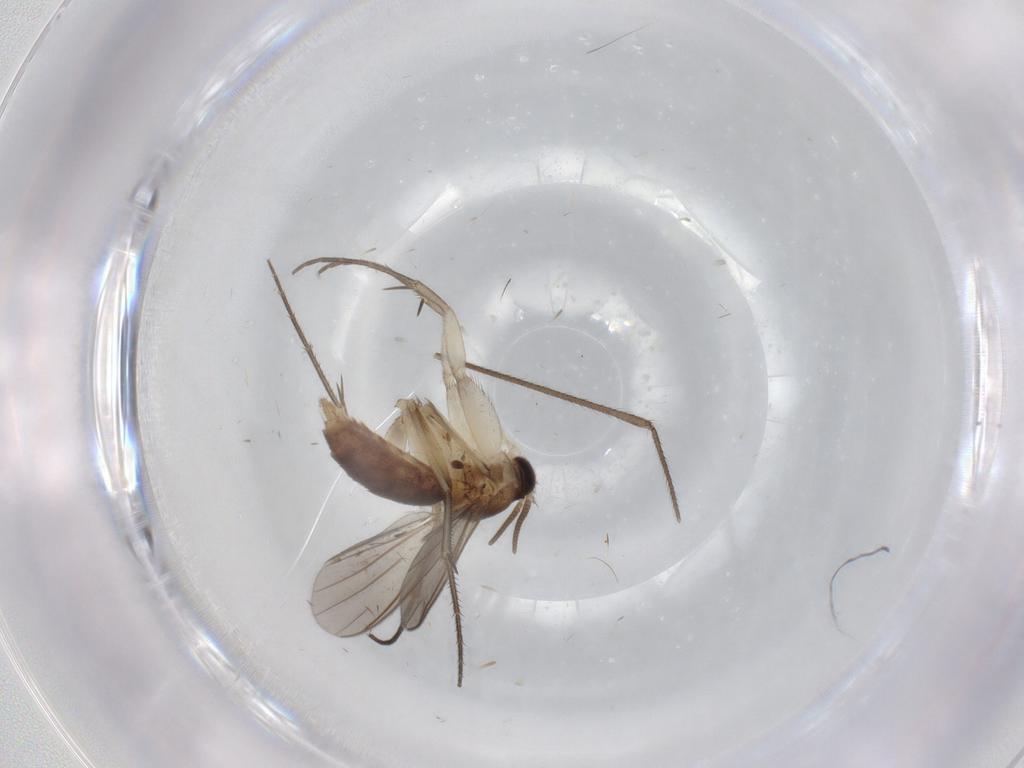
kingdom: Animalia
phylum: Arthropoda
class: Insecta
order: Diptera
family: Mycetophilidae
